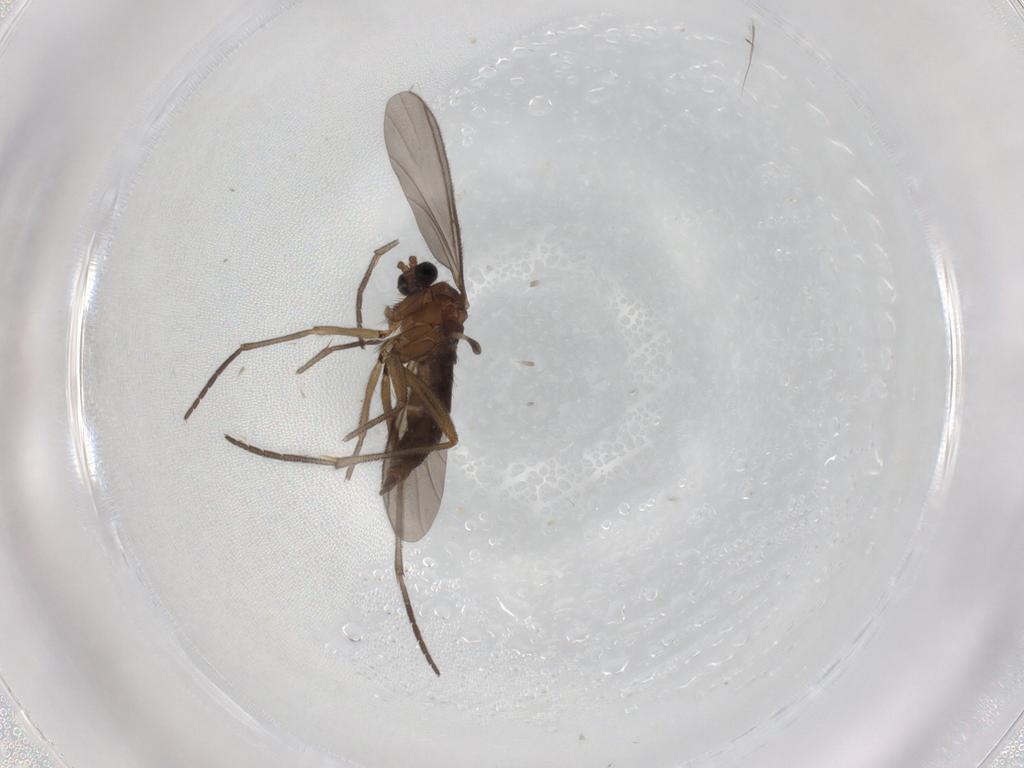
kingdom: Animalia
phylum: Arthropoda
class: Insecta
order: Diptera
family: Sciaridae
